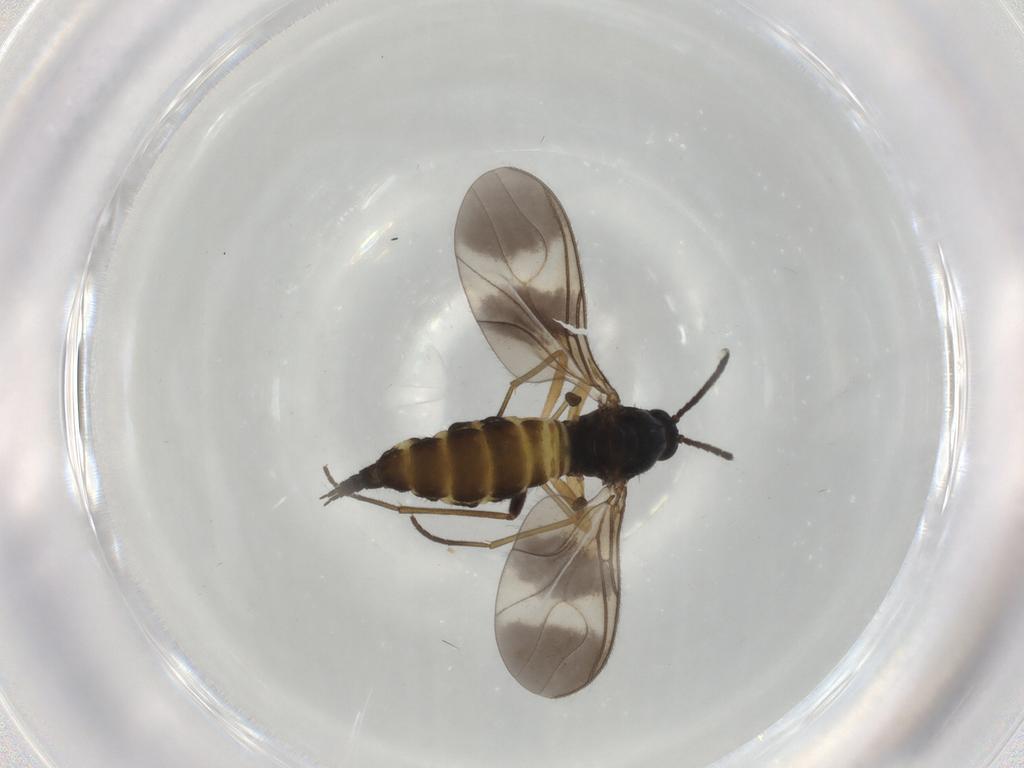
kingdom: Animalia
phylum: Arthropoda
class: Insecta
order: Diptera
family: Sciaridae
